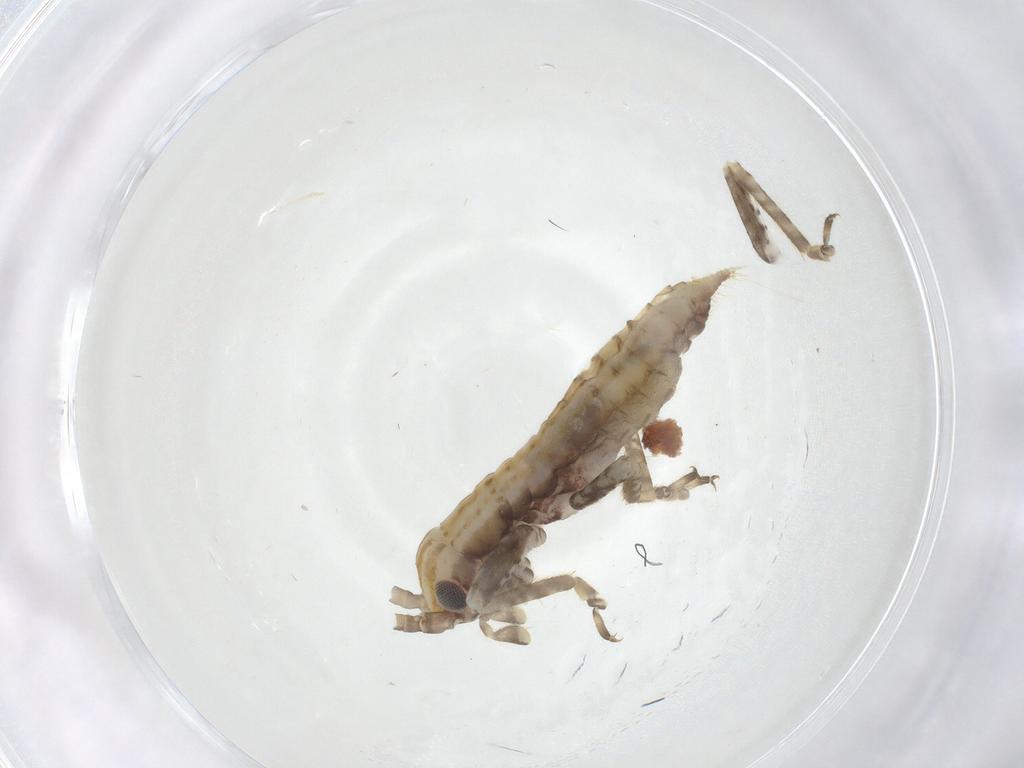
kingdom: Animalia
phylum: Arthropoda
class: Insecta
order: Orthoptera
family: Gryllidae
